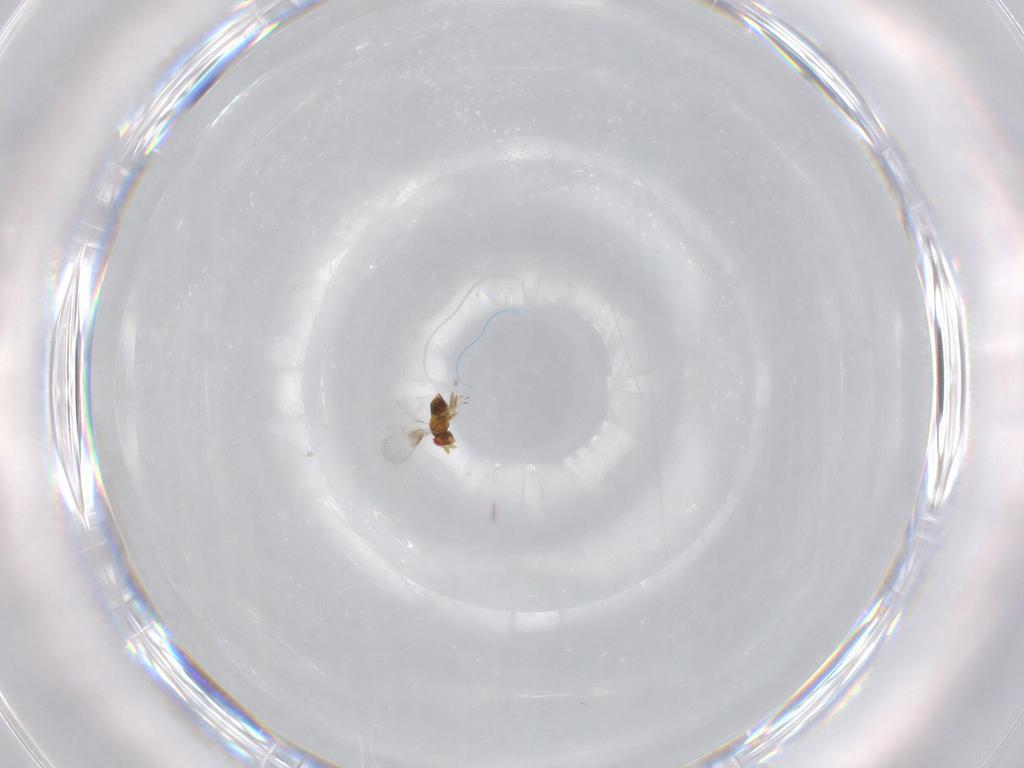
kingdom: Animalia
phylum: Arthropoda
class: Insecta
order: Hymenoptera
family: Trichogrammatidae
